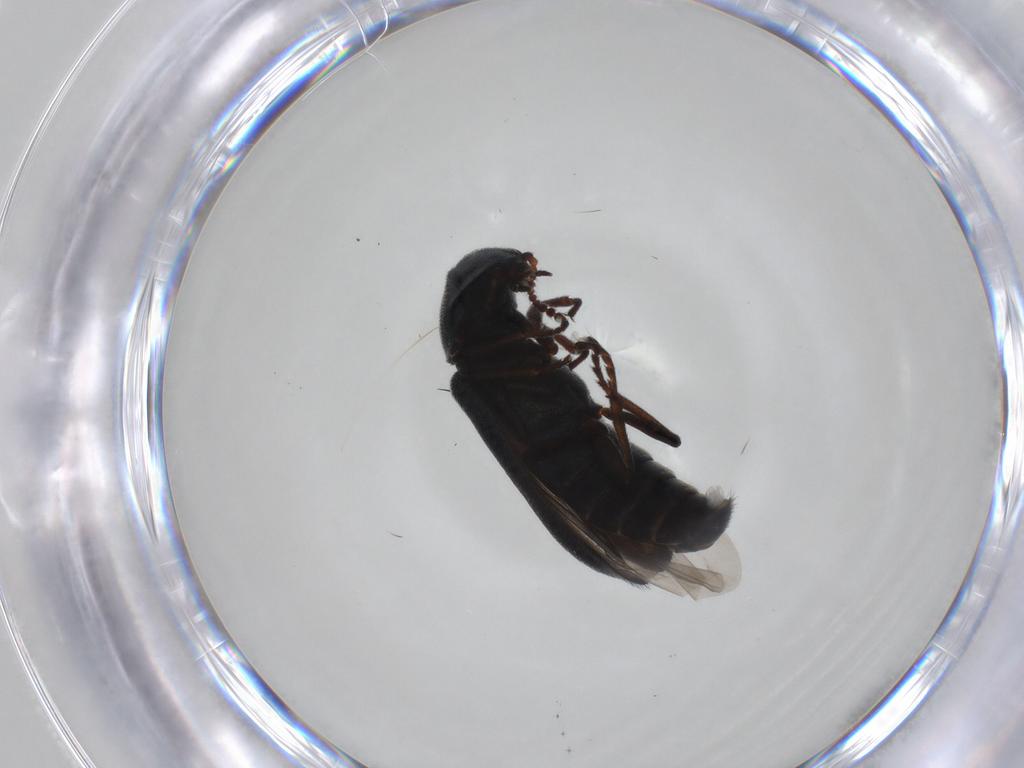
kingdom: Animalia
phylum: Arthropoda
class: Insecta
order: Coleoptera
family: Melyridae
